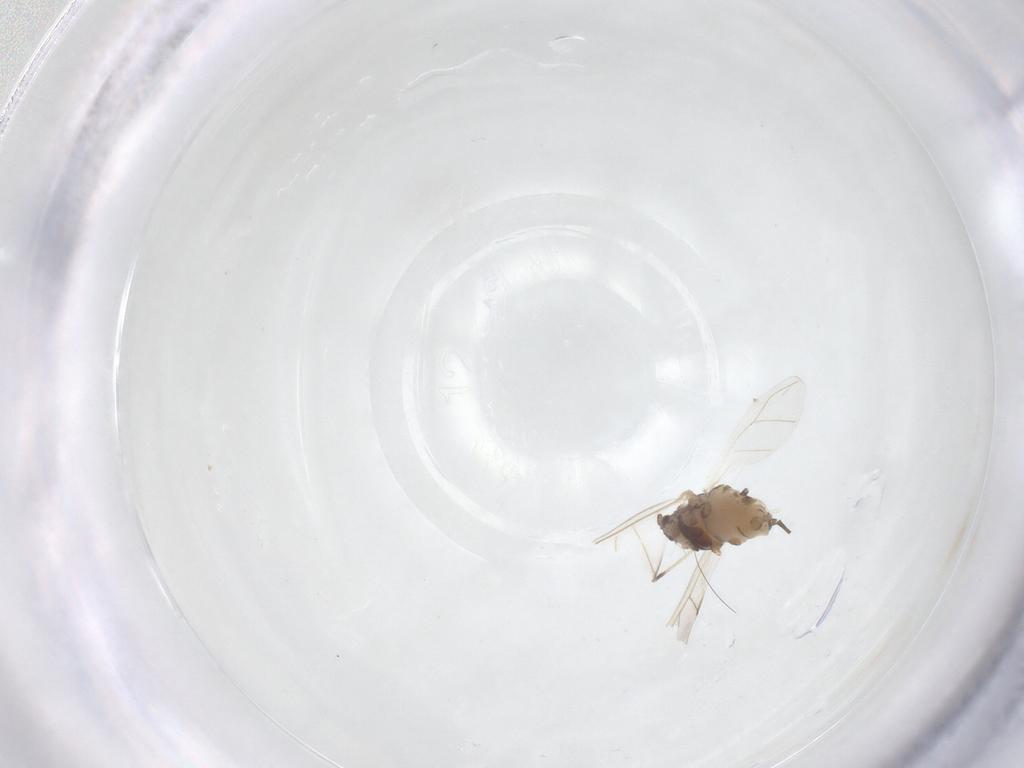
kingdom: Animalia
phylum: Arthropoda
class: Insecta
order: Hemiptera
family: Aphididae
